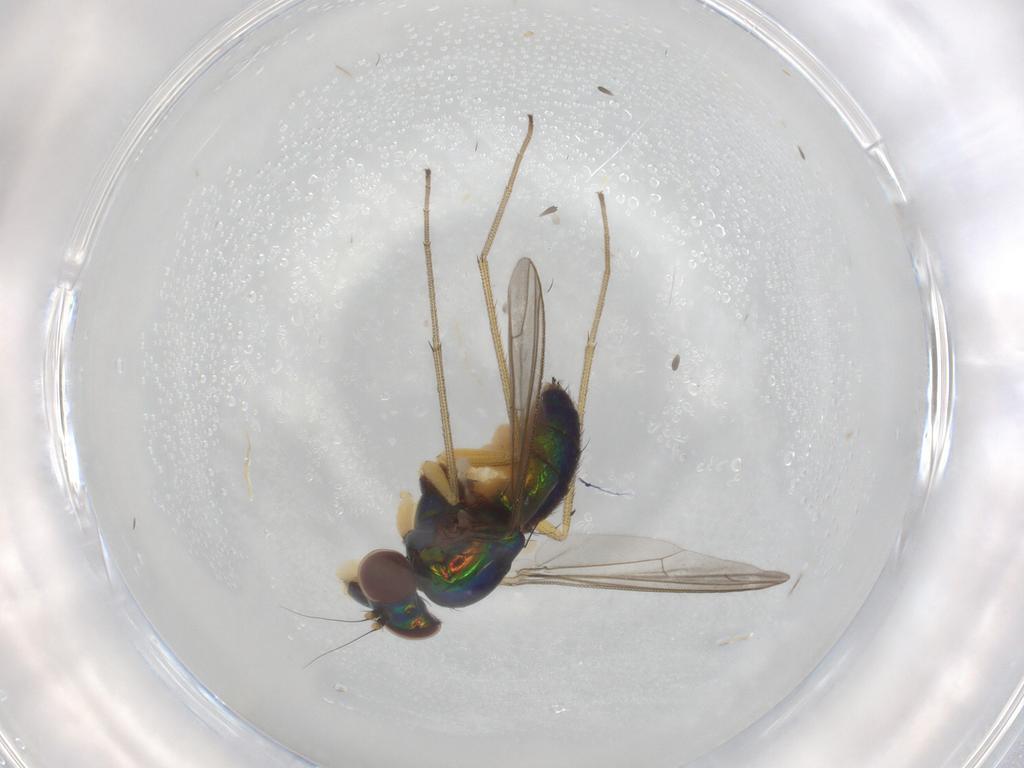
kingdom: Animalia
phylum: Arthropoda
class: Insecta
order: Diptera
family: Dolichopodidae
